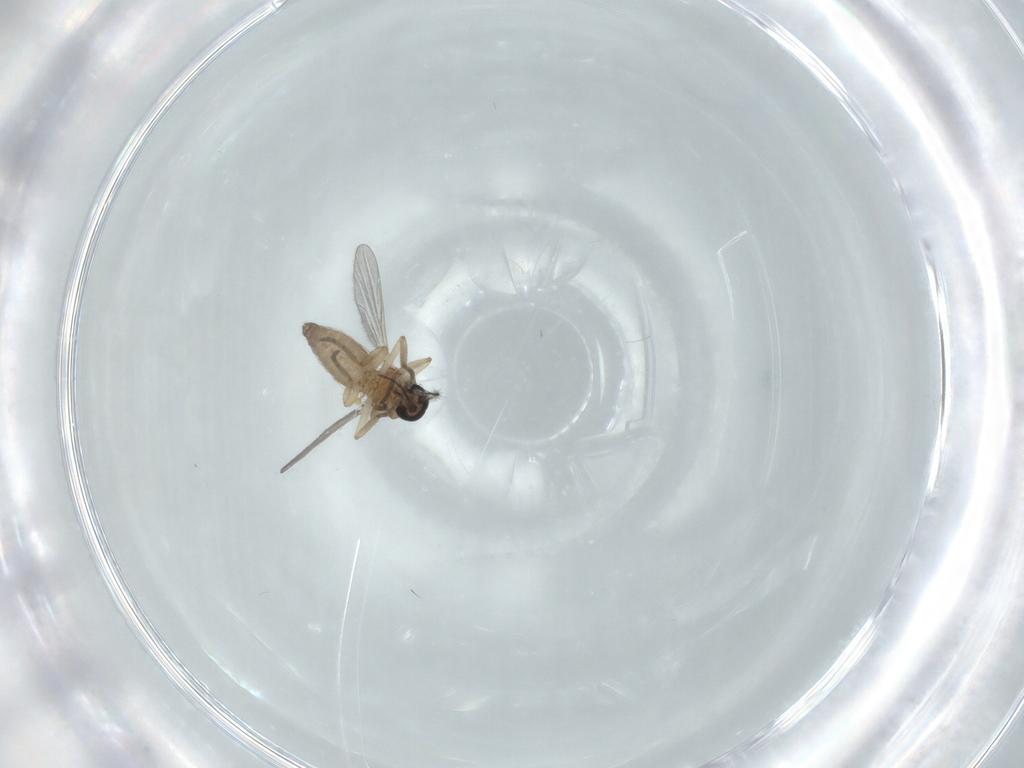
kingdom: Animalia
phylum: Arthropoda
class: Insecta
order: Diptera
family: Ceratopogonidae
